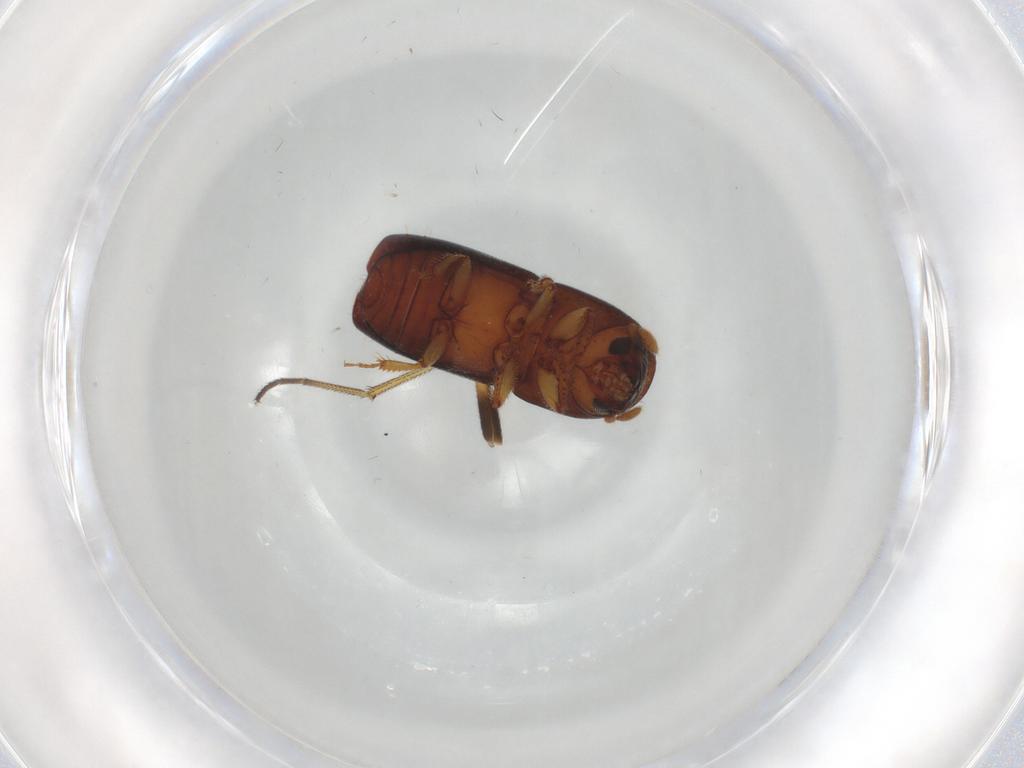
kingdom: Animalia
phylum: Arthropoda
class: Insecta
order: Coleoptera
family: Curculionidae
